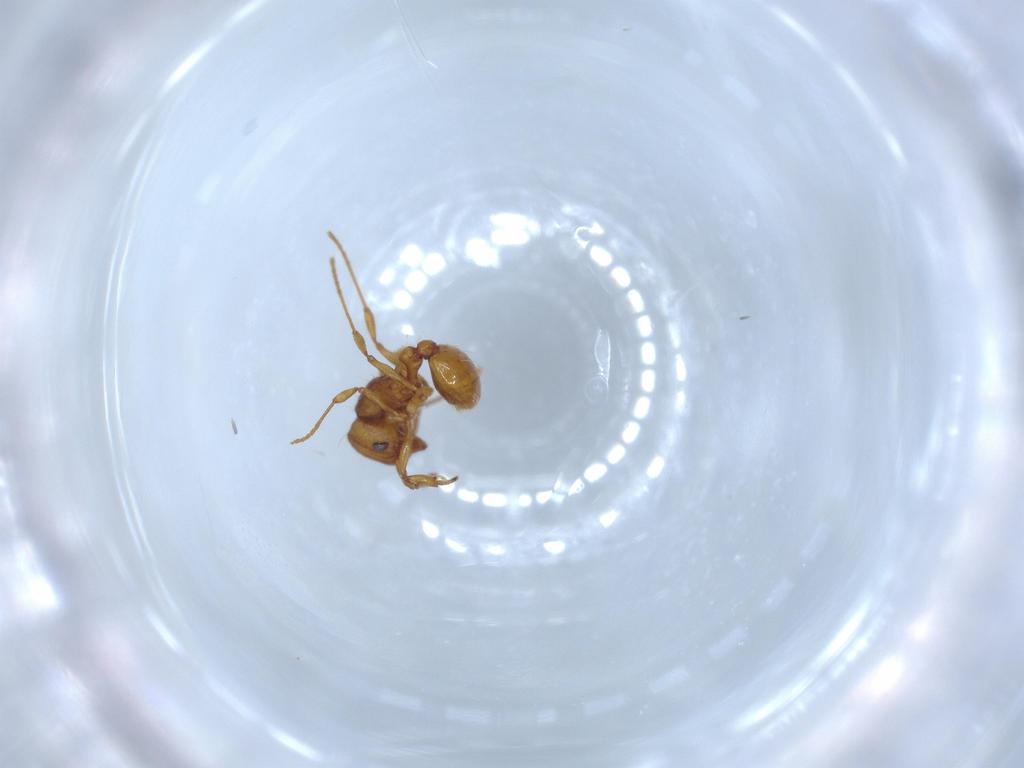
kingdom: Animalia
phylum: Arthropoda
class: Insecta
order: Hymenoptera
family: Formicidae
